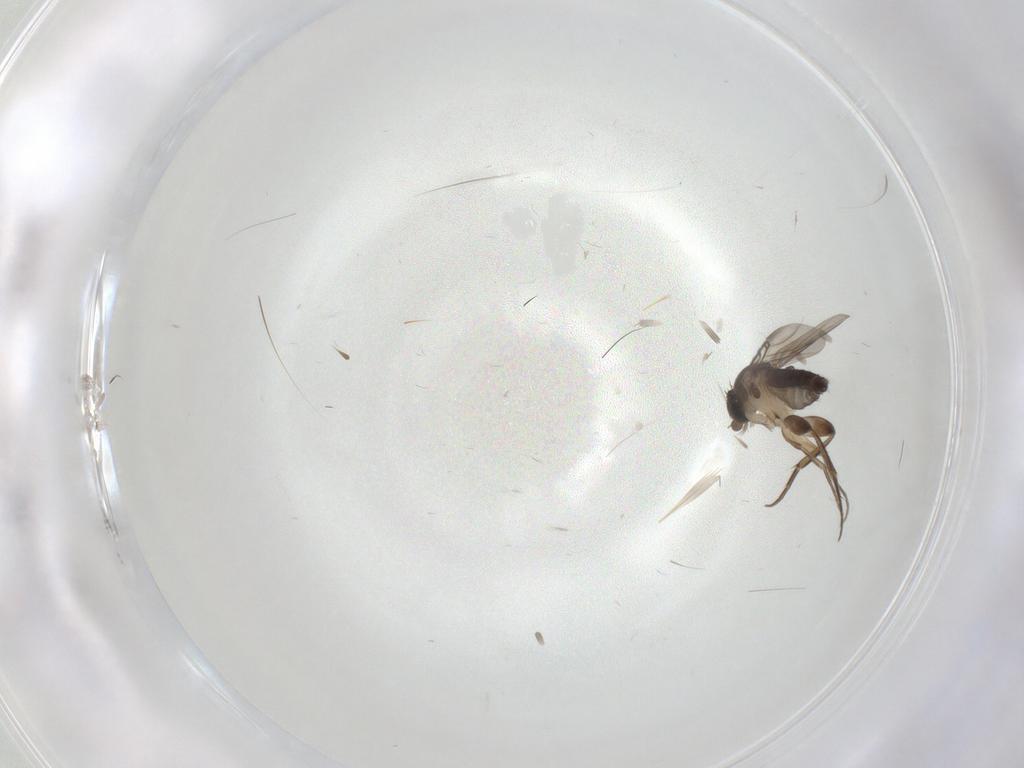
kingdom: Animalia
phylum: Arthropoda
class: Insecta
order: Diptera
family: Phoridae
